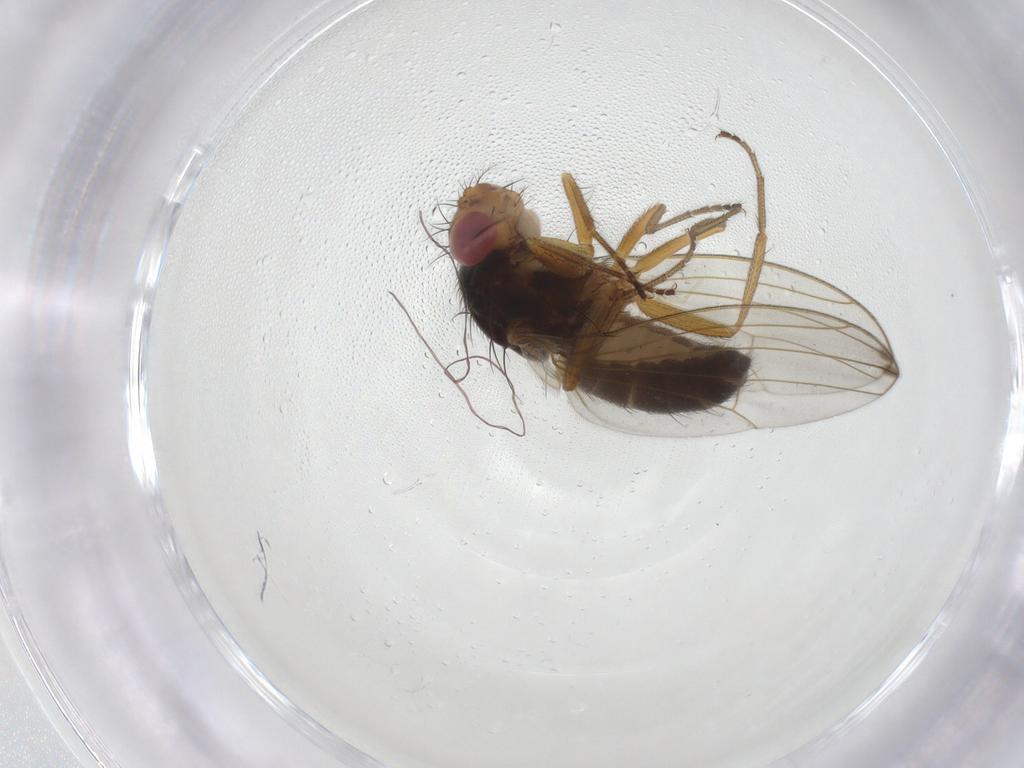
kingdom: Animalia
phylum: Arthropoda
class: Insecta
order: Diptera
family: Drosophilidae
